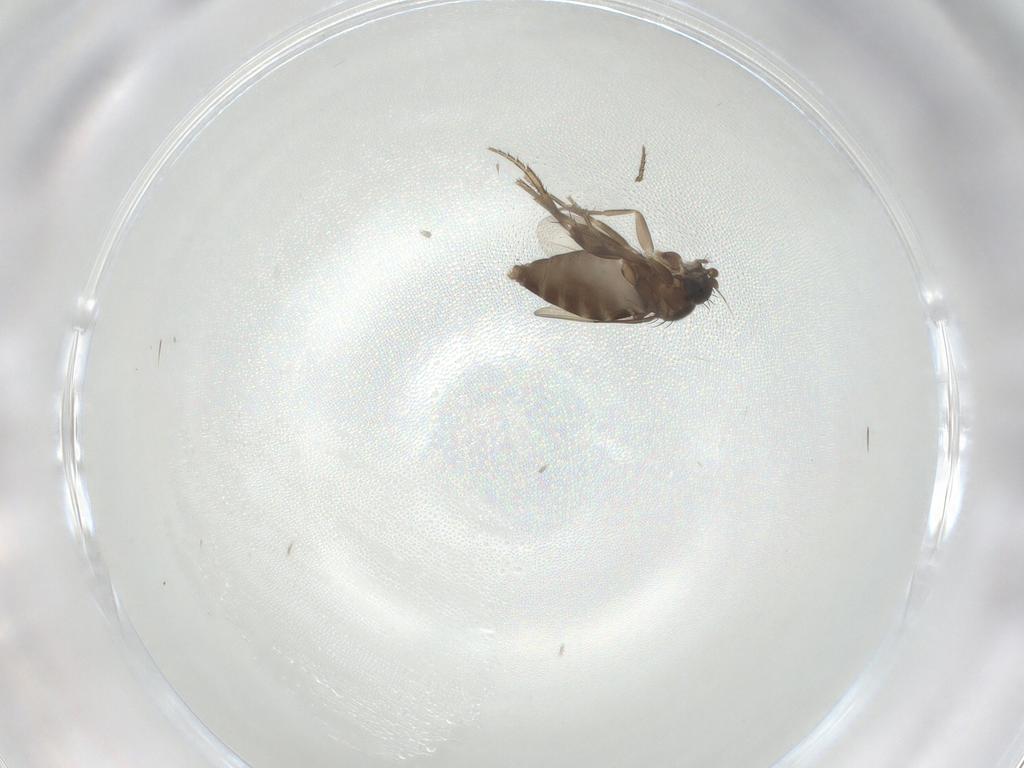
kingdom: Animalia
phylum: Arthropoda
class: Insecta
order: Diptera
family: Phoridae
